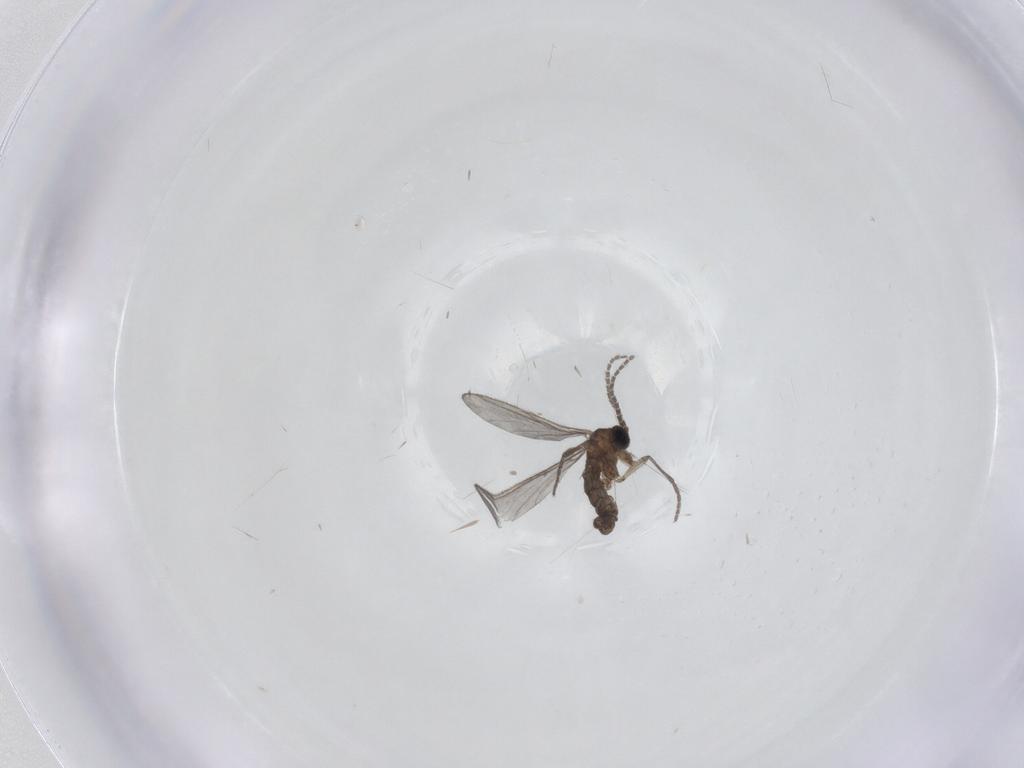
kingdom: Animalia
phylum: Arthropoda
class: Insecta
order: Diptera
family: Sciaridae
